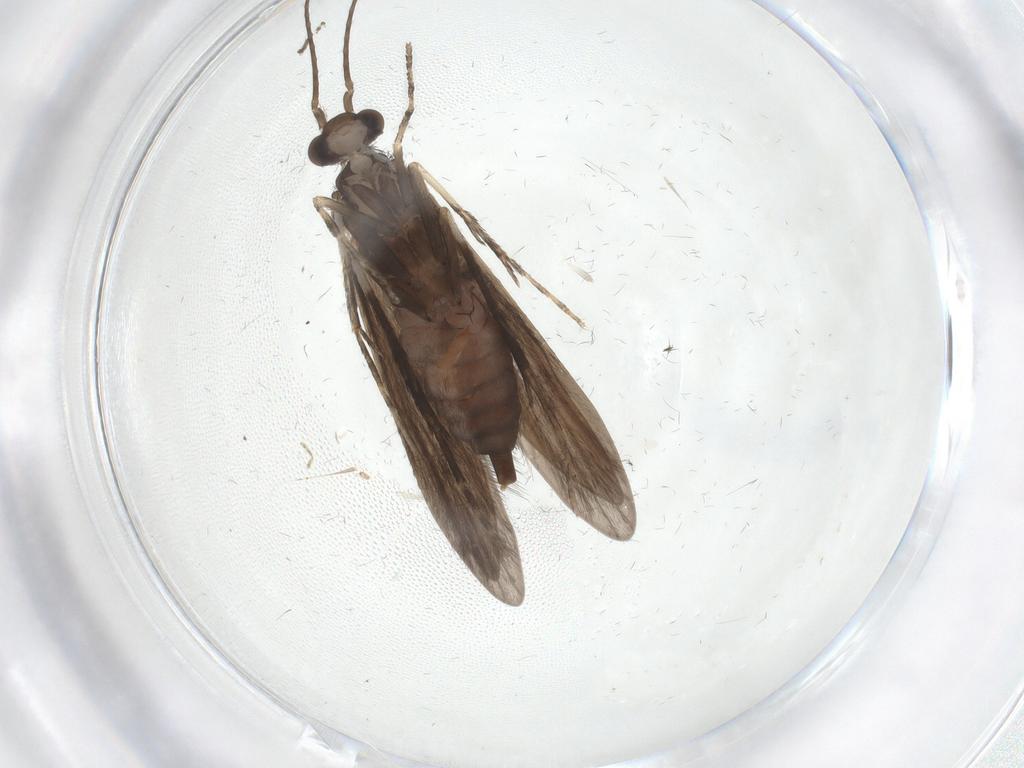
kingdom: Animalia
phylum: Arthropoda
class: Insecta
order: Trichoptera
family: Xiphocentronidae
